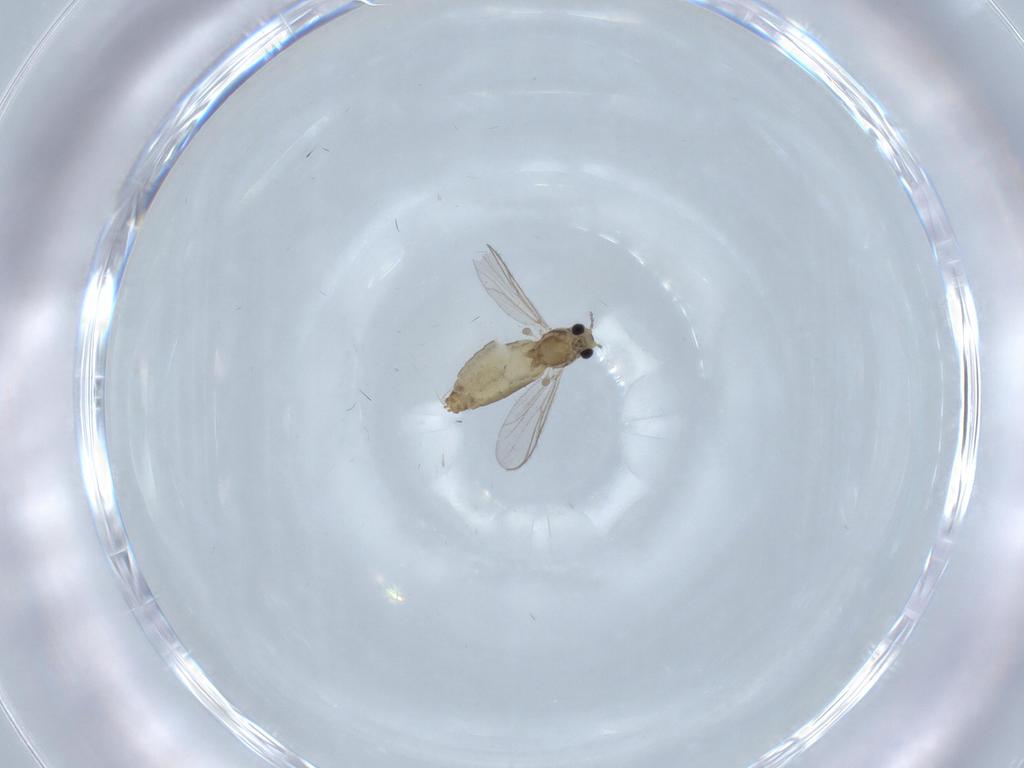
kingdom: Animalia
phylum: Arthropoda
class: Insecta
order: Diptera
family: Chironomidae
